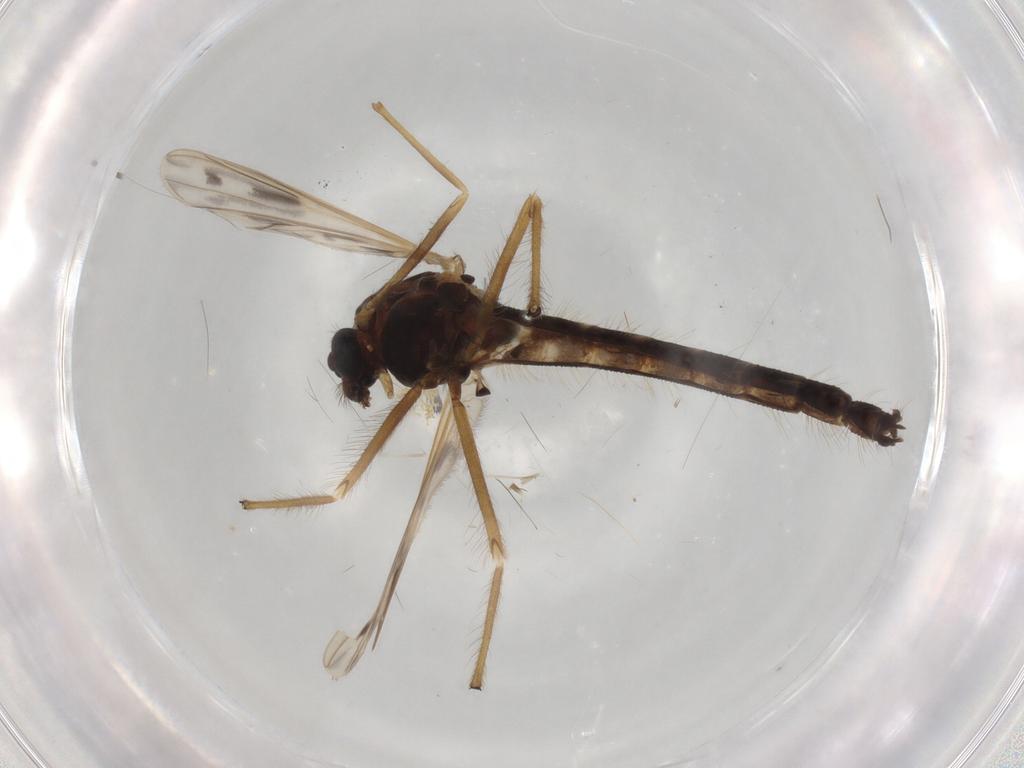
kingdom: Animalia
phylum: Arthropoda
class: Insecta
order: Diptera
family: Chironomidae
